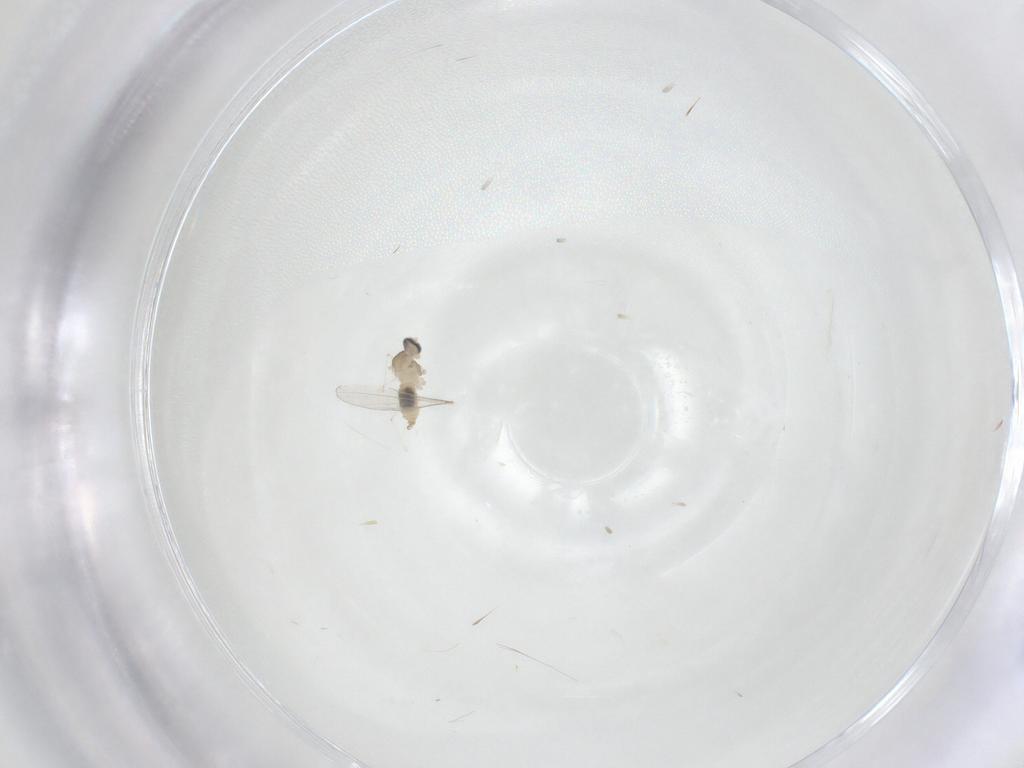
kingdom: Animalia
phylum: Arthropoda
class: Insecta
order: Diptera
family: Cecidomyiidae
